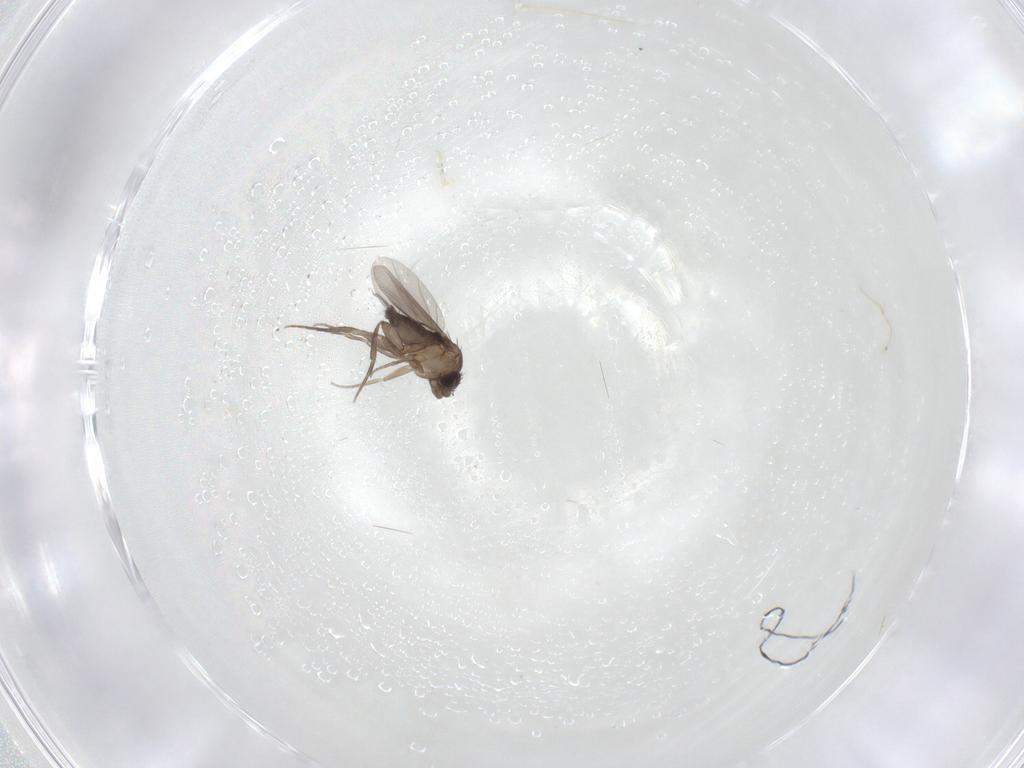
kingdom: Animalia
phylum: Arthropoda
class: Insecta
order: Diptera
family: Phoridae
